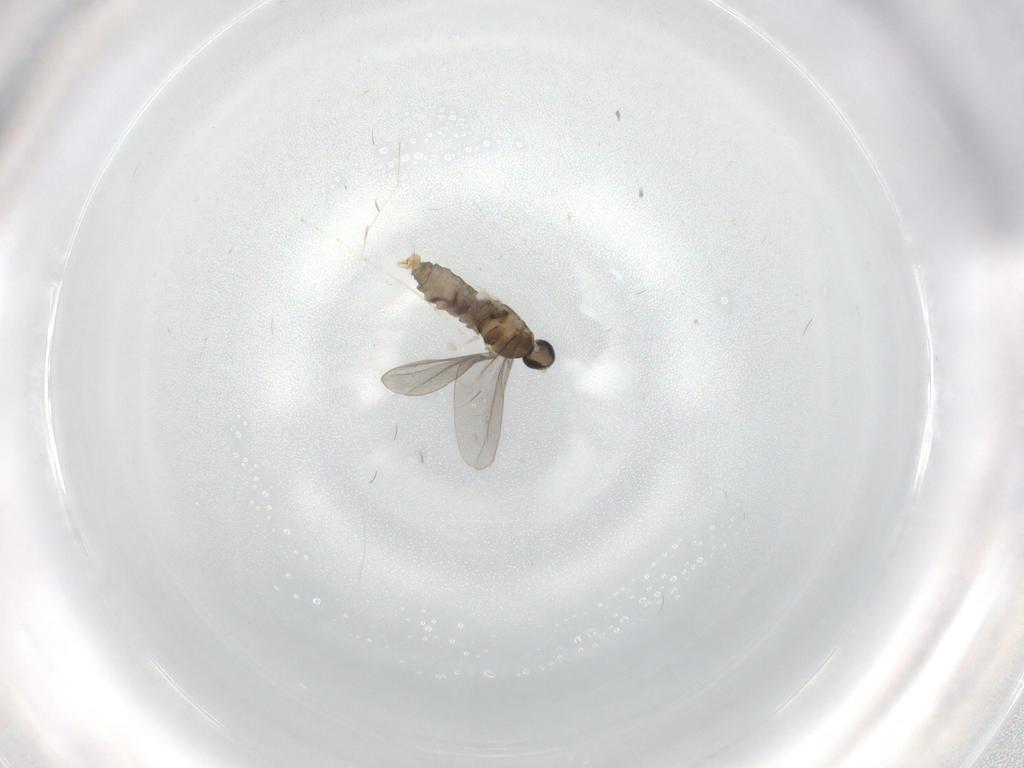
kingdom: Animalia
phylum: Arthropoda
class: Insecta
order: Diptera
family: Cecidomyiidae
